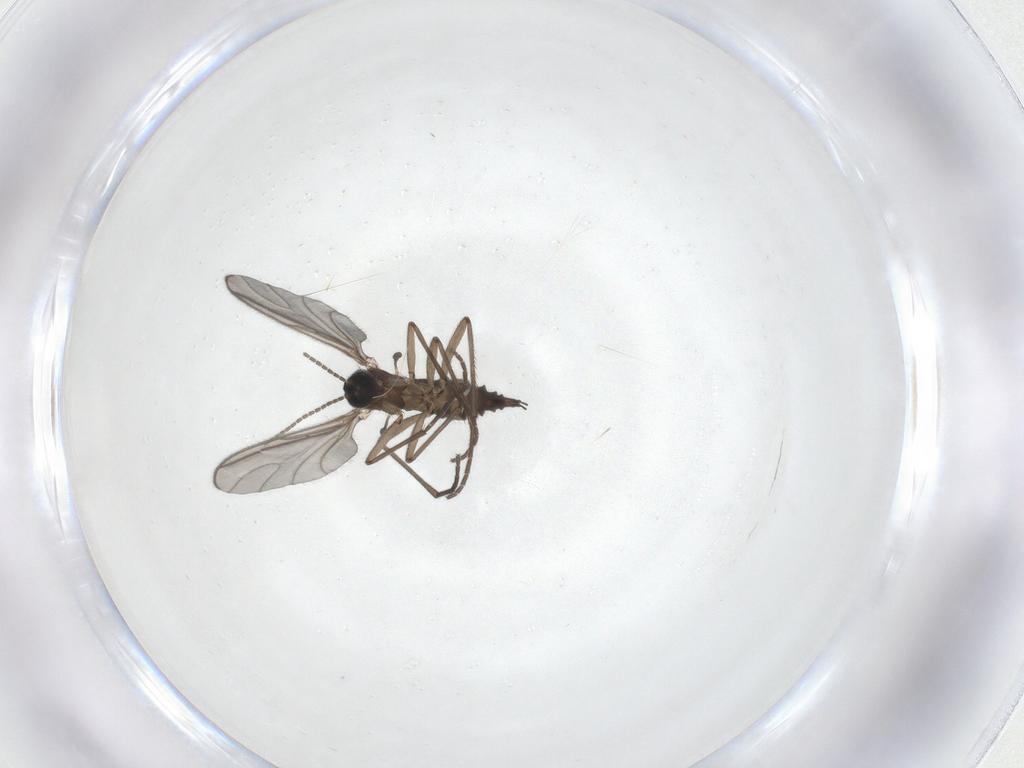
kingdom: Animalia
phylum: Arthropoda
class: Insecta
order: Diptera
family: Sciaridae
